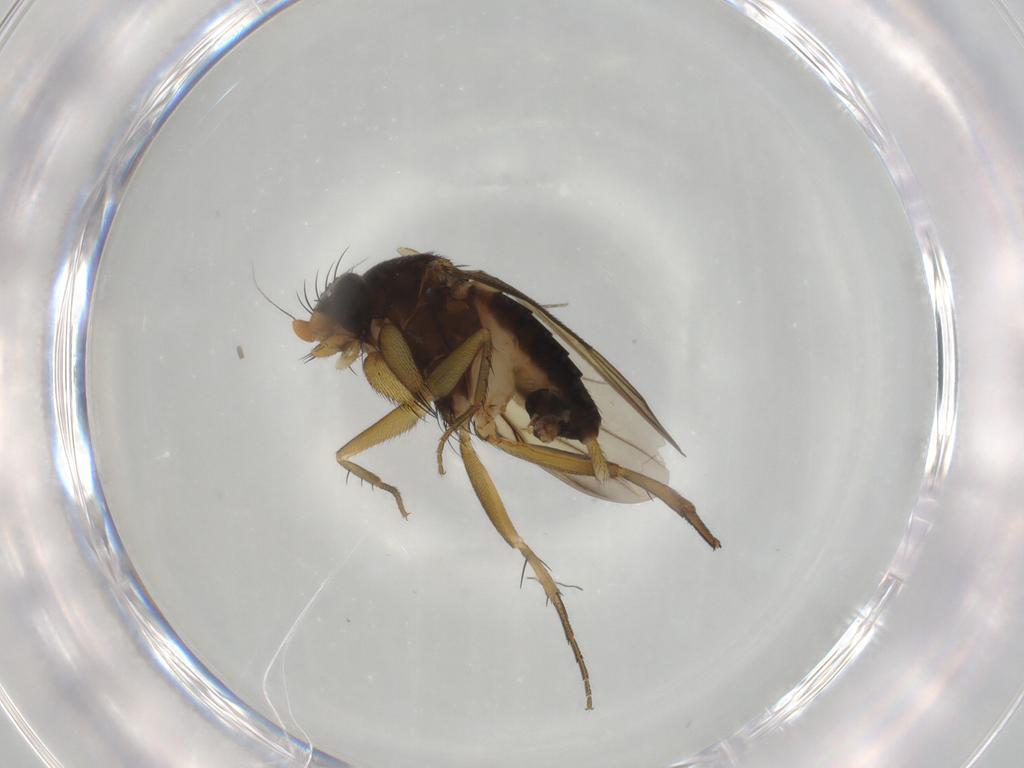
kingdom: Animalia
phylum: Arthropoda
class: Insecta
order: Diptera
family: Phoridae
